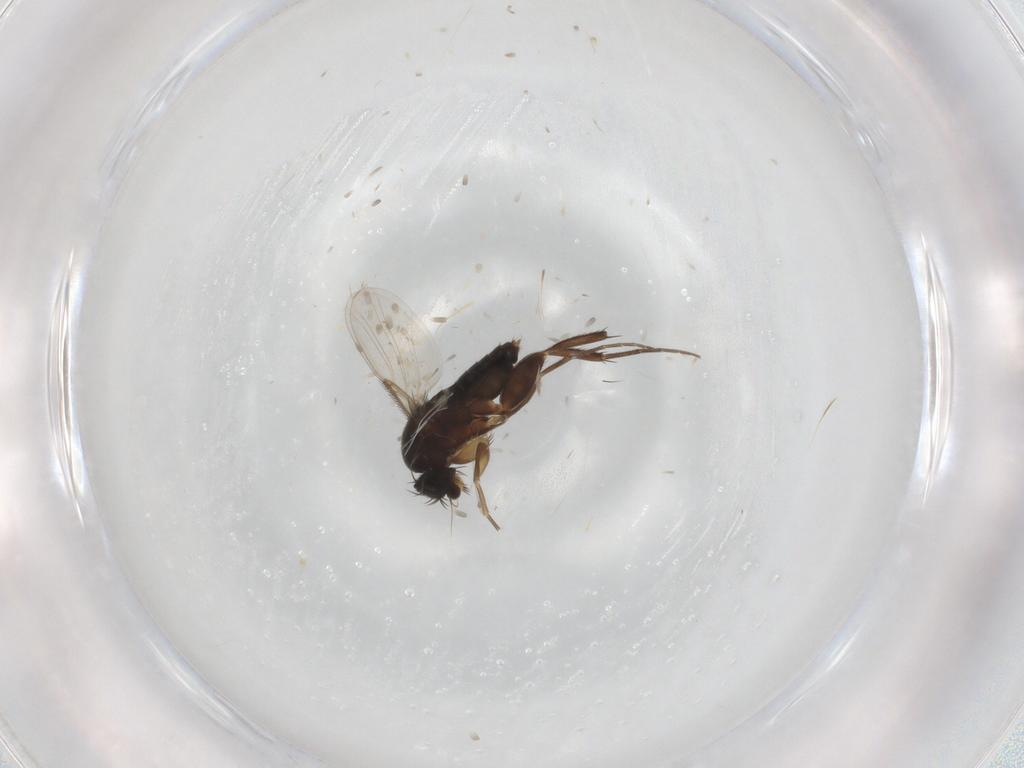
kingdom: Animalia
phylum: Arthropoda
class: Insecta
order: Diptera
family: Phoridae
